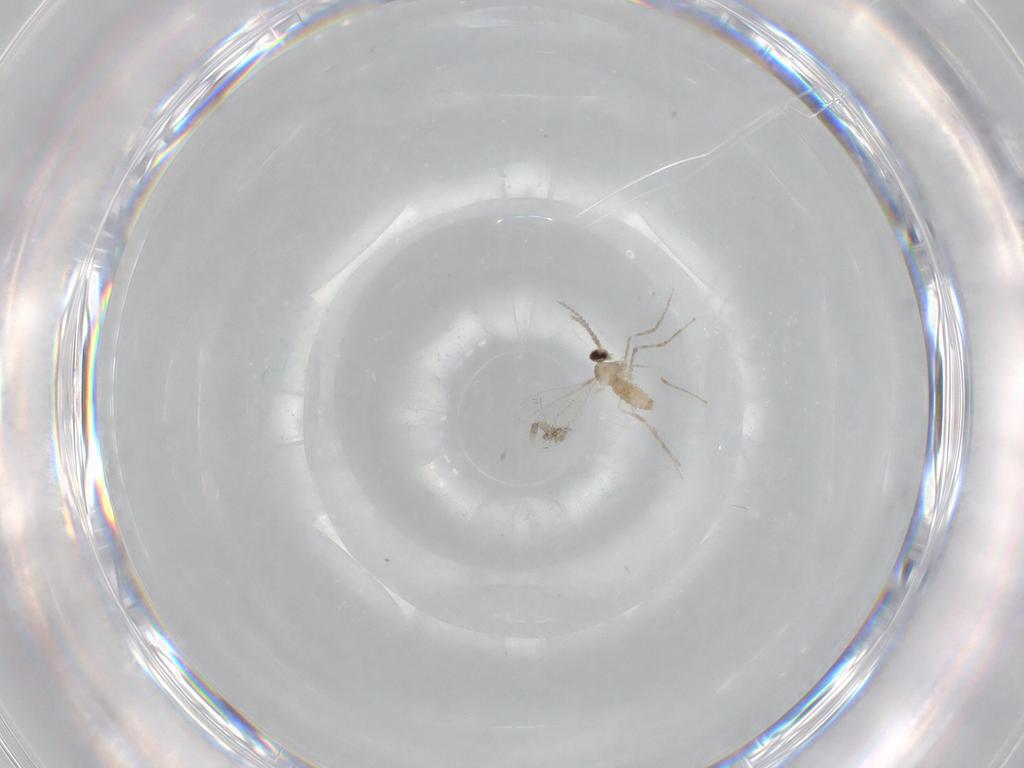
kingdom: Animalia
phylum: Arthropoda
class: Insecta
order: Diptera
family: Cecidomyiidae
